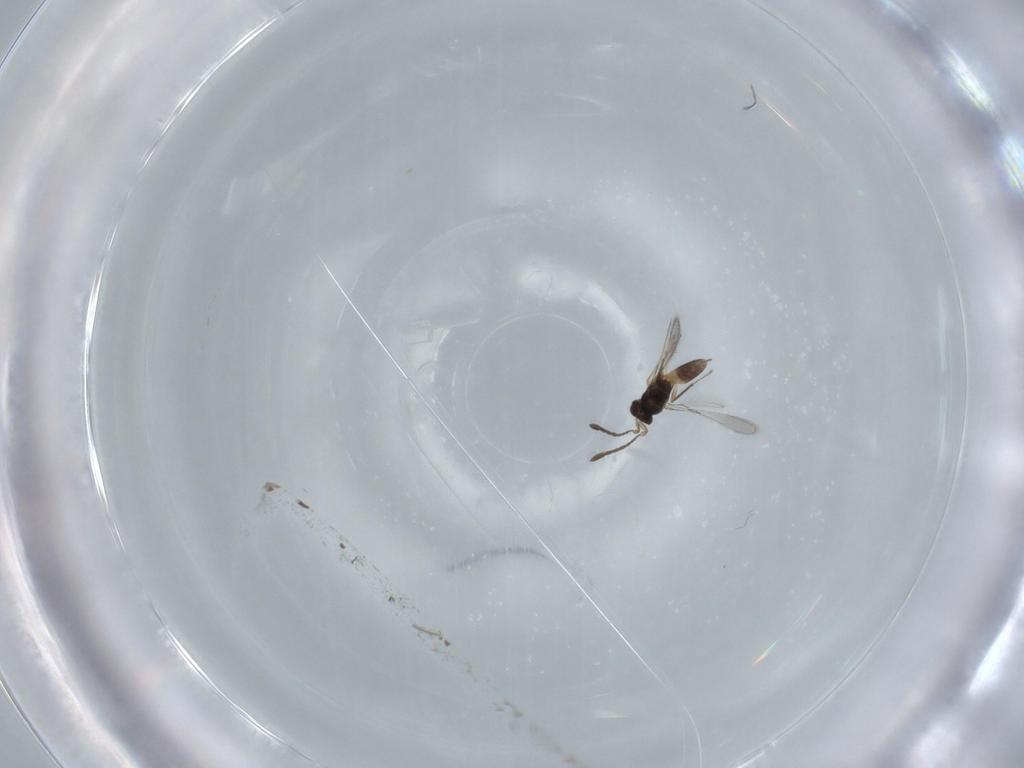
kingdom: Animalia
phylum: Arthropoda
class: Insecta
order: Hymenoptera
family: Mymaridae
